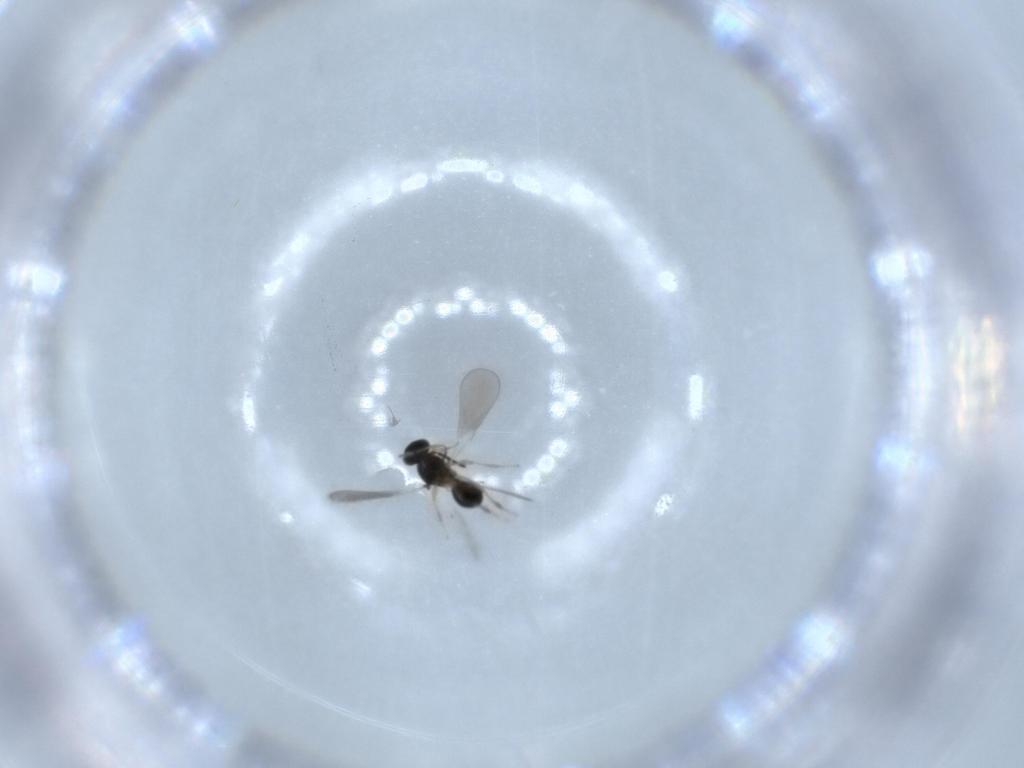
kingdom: Animalia
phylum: Arthropoda
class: Insecta
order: Hymenoptera
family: Platygastridae
